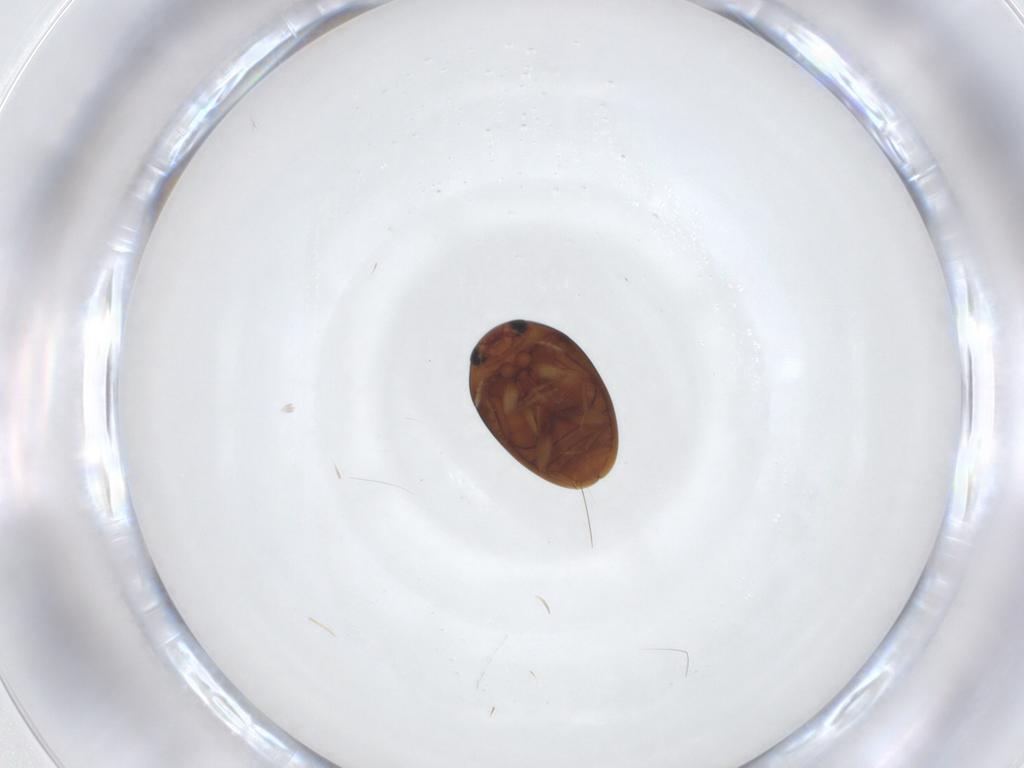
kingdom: Animalia
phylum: Arthropoda
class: Insecta
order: Coleoptera
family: Phalacridae
